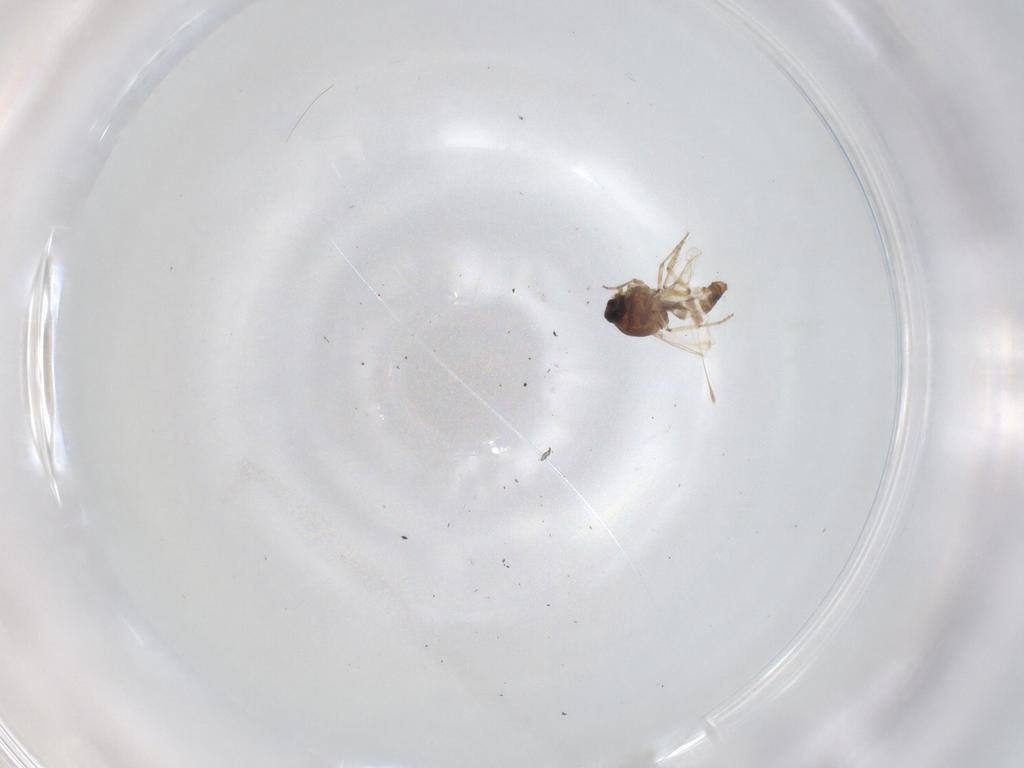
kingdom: Animalia
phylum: Arthropoda
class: Insecta
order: Diptera
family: Ceratopogonidae
